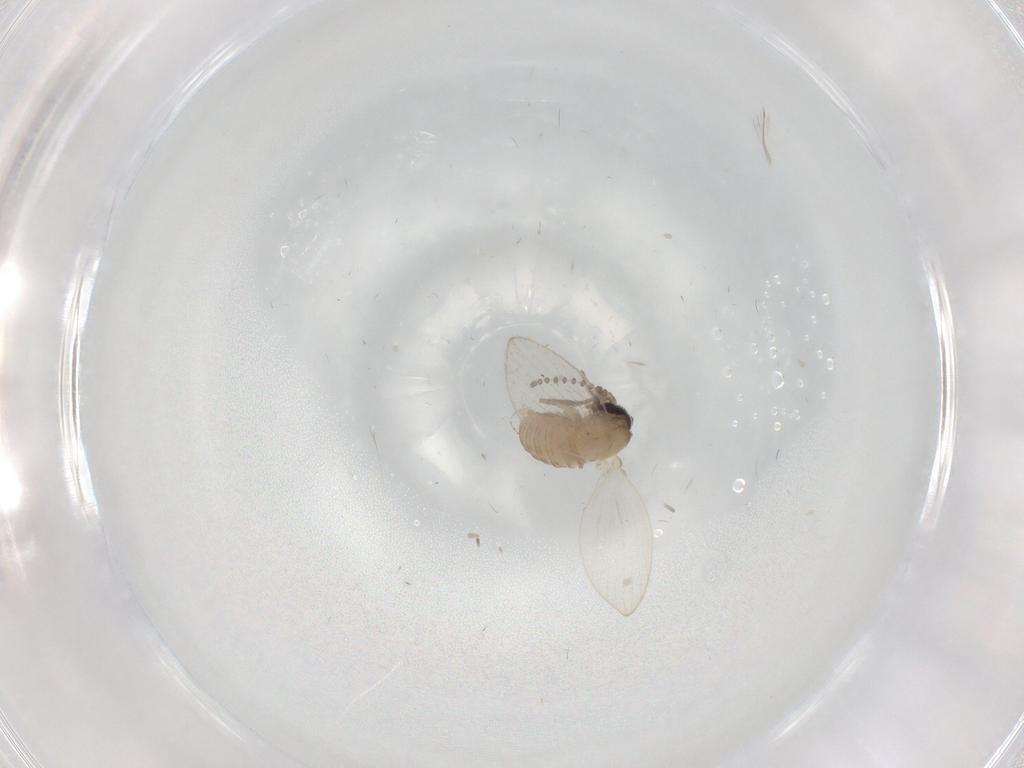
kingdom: Animalia
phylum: Arthropoda
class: Insecta
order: Diptera
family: Psychodidae
